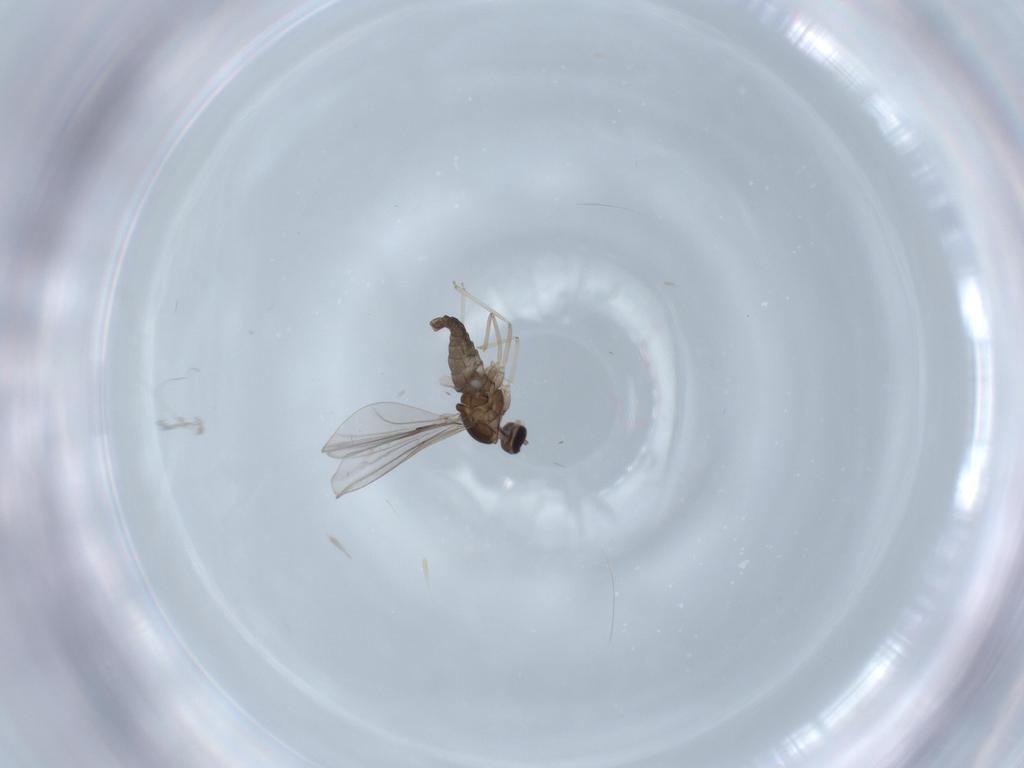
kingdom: Animalia
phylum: Arthropoda
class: Insecta
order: Diptera
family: Cecidomyiidae
